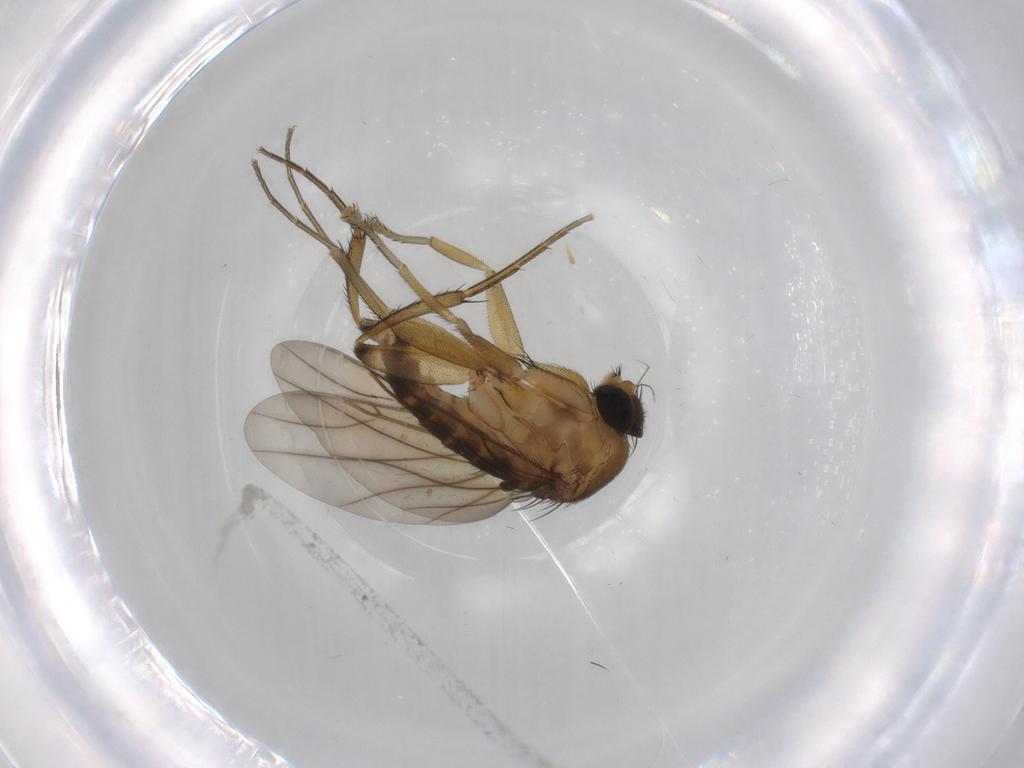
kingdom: Animalia
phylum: Arthropoda
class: Insecta
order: Diptera
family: Phoridae
